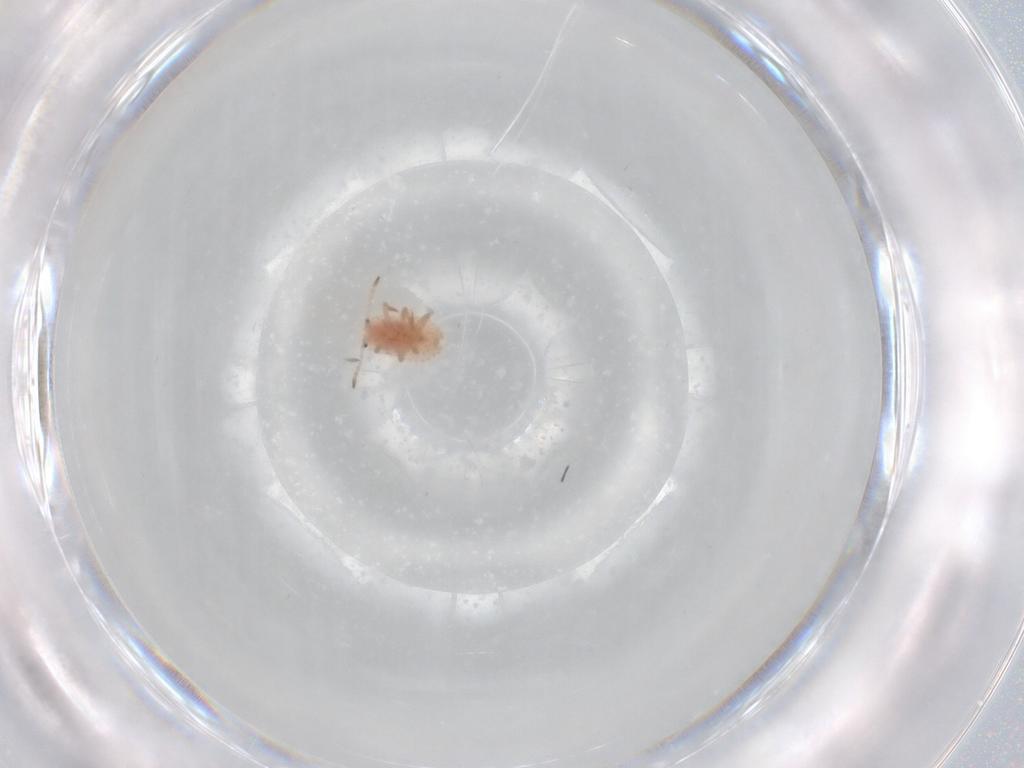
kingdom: Animalia
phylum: Arthropoda
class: Insecta
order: Hemiptera
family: Coccoidea_incertae_sedis
